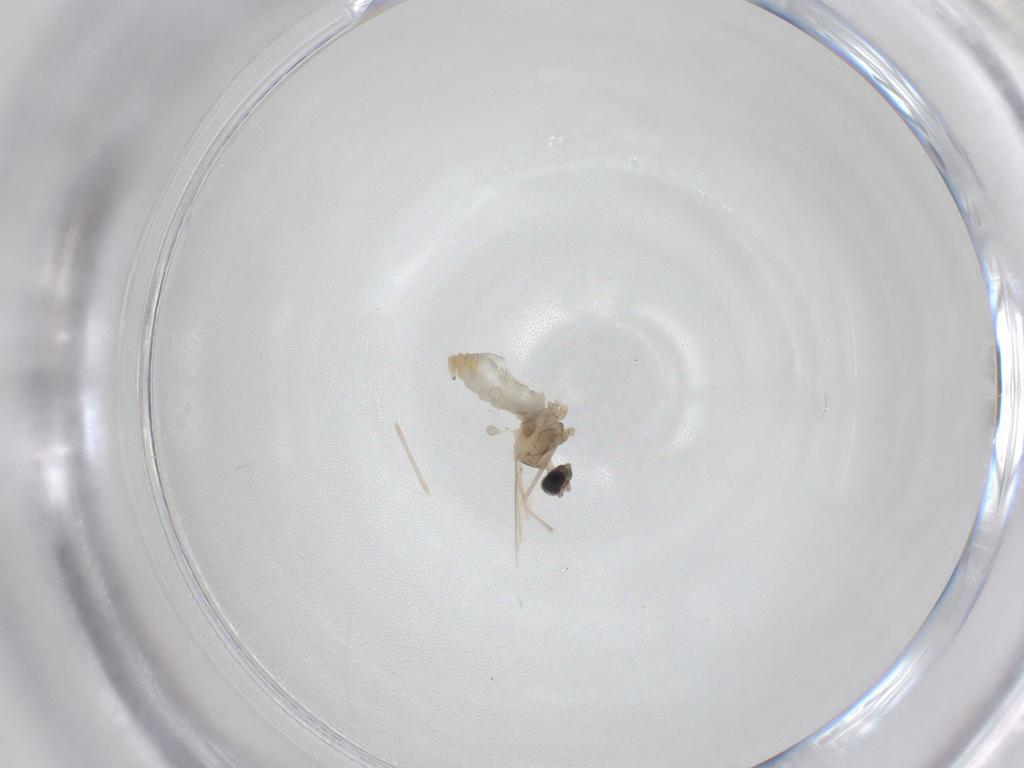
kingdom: Animalia
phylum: Arthropoda
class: Insecta
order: Diptera
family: Cecidomyiidae
